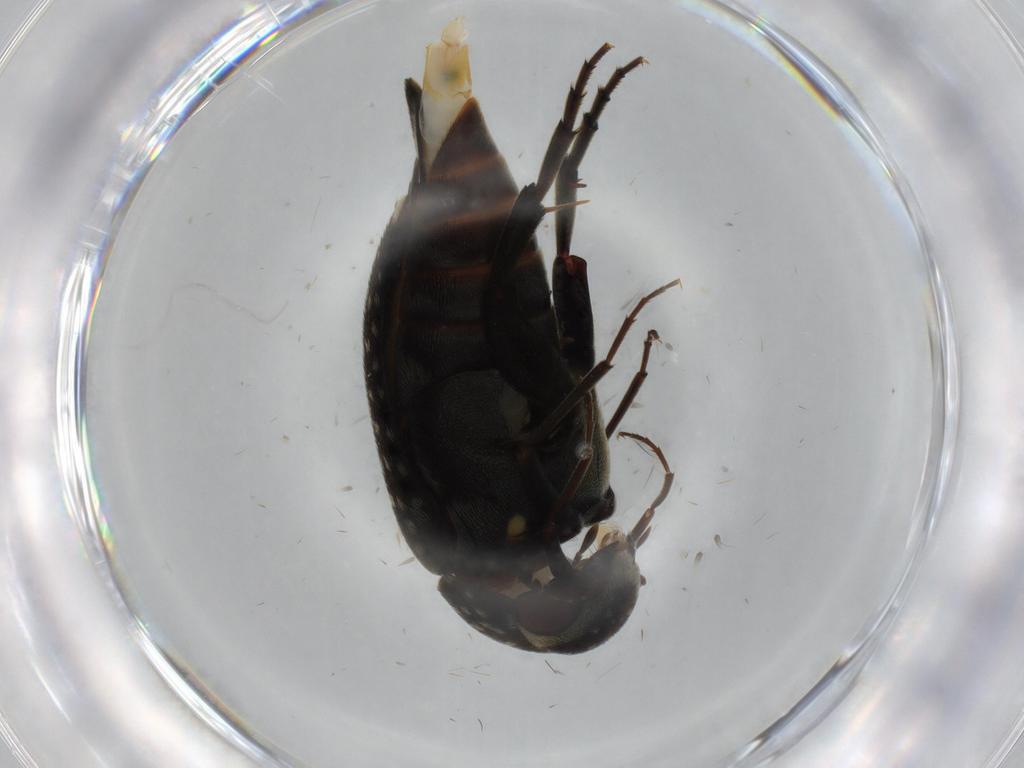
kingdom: Animalia
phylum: Arthropoda
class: Insecta
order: Coleoptera
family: Mordellidae
